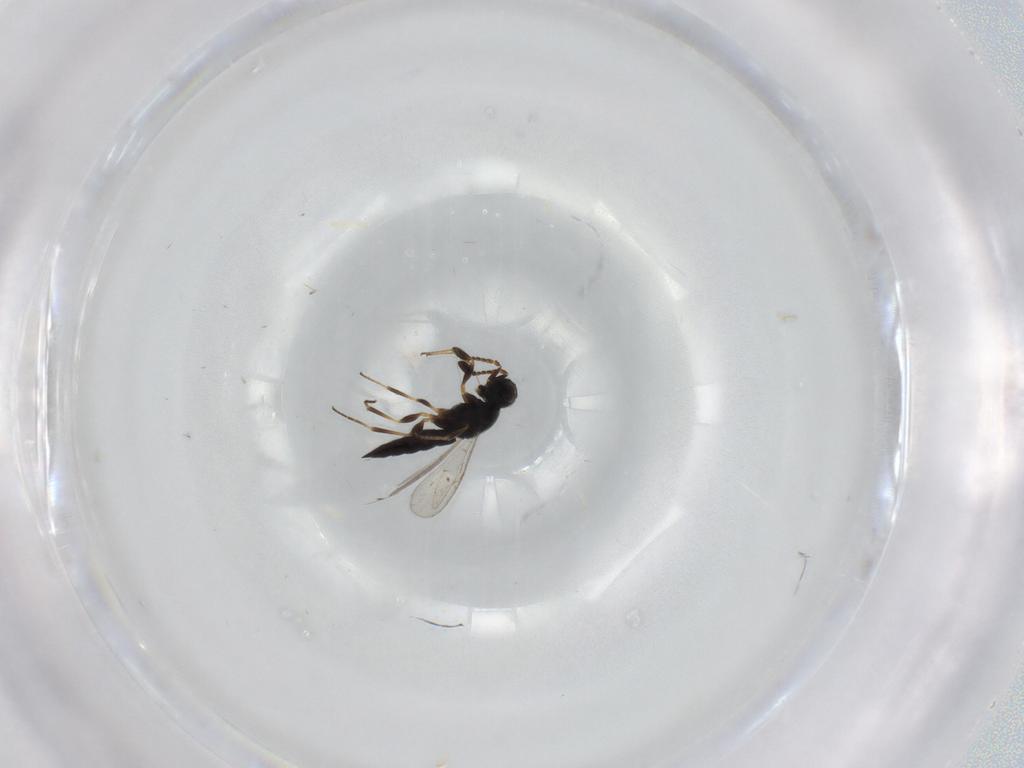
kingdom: Animalia
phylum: Arthropoda
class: Insecta
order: Hymenoptera
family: Scelionidae
